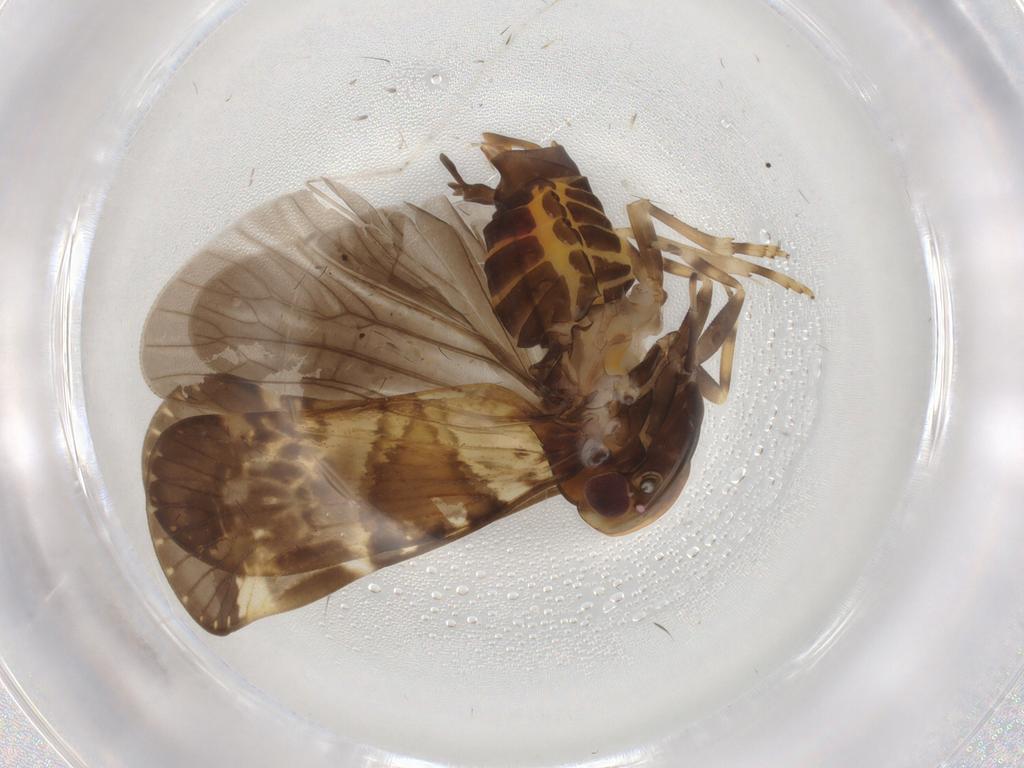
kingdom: Animalia
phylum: Arthropoda
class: Insecta
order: Hemiptera
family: Cixiidae
